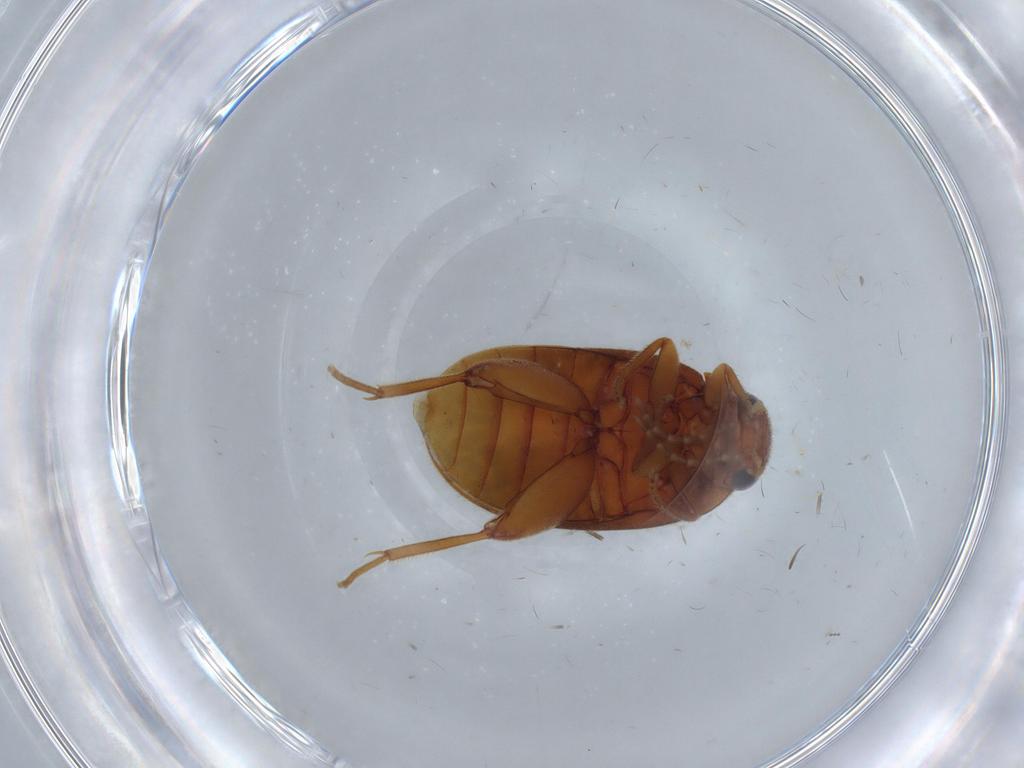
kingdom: Animalia
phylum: Arthropoda
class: Insecta
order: Coleoptera
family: Scirtidae
